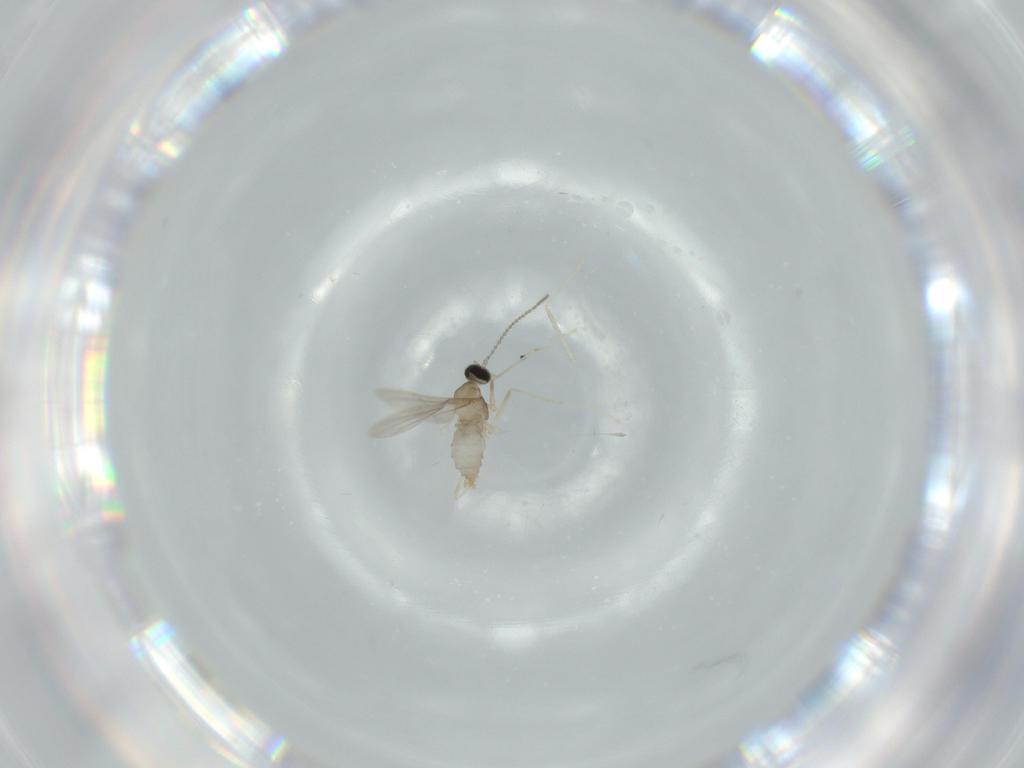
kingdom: Animalia
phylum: Arthropoda
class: Insecta
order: Diptera
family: Cecidomyiidae
